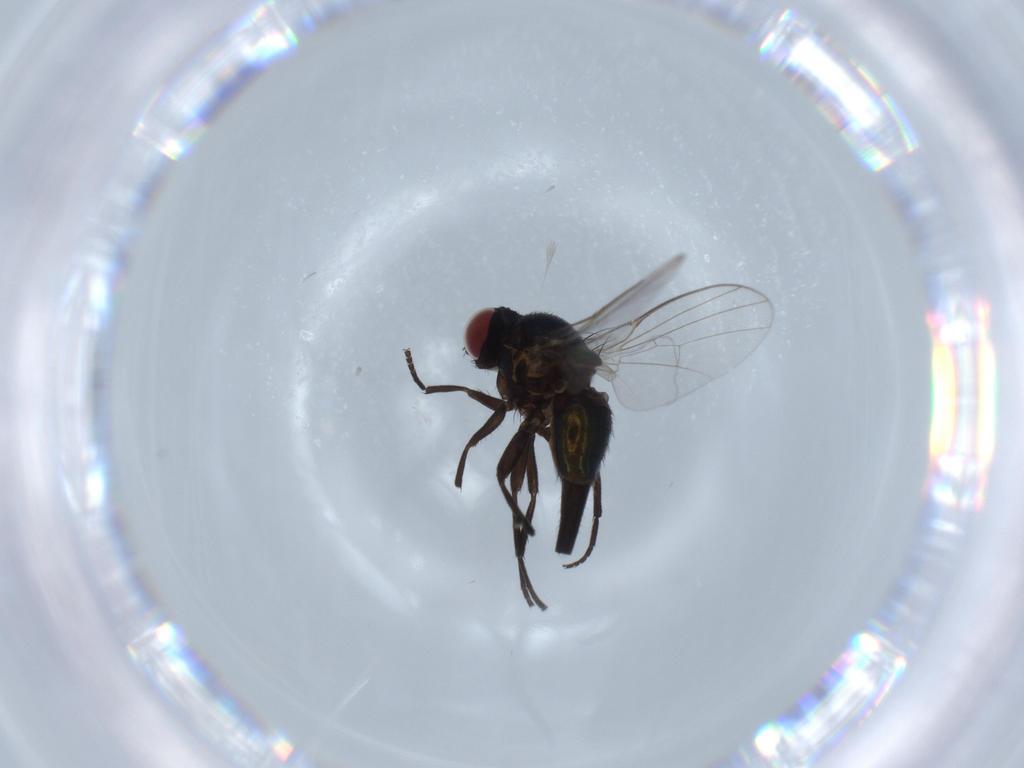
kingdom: Animalia
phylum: Arthropoda
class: Insecta
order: Diptera
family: Agromyzidae
